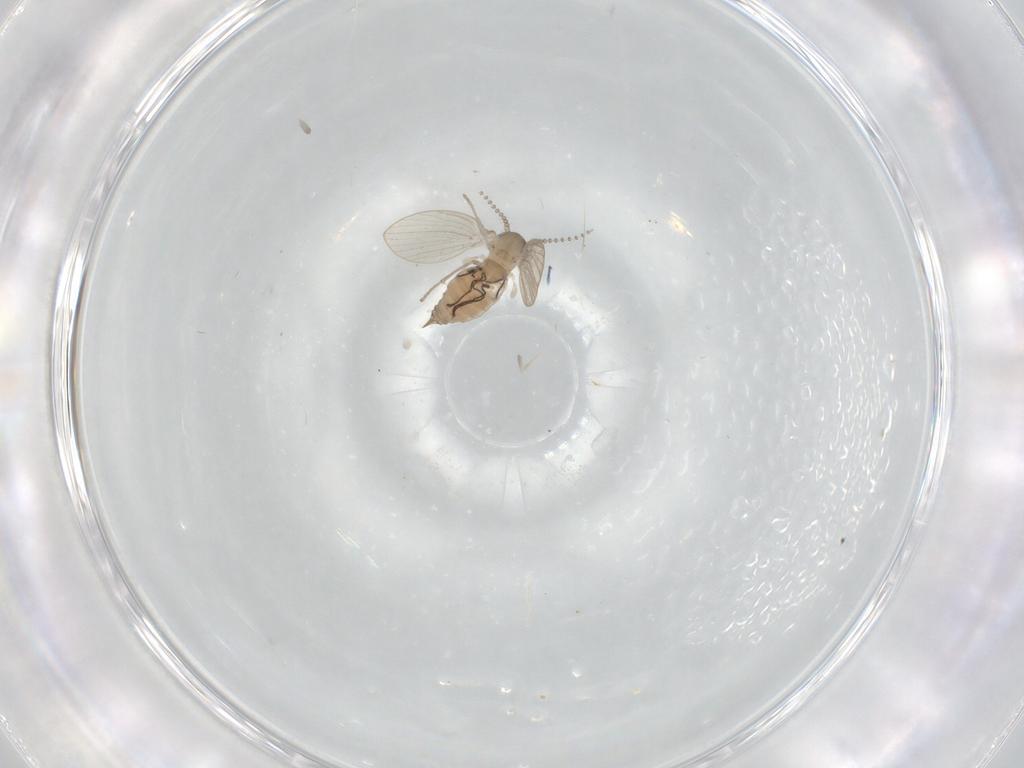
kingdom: Animalia
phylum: Arthropoda
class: Insecta
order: Diptera
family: Psychodidae
